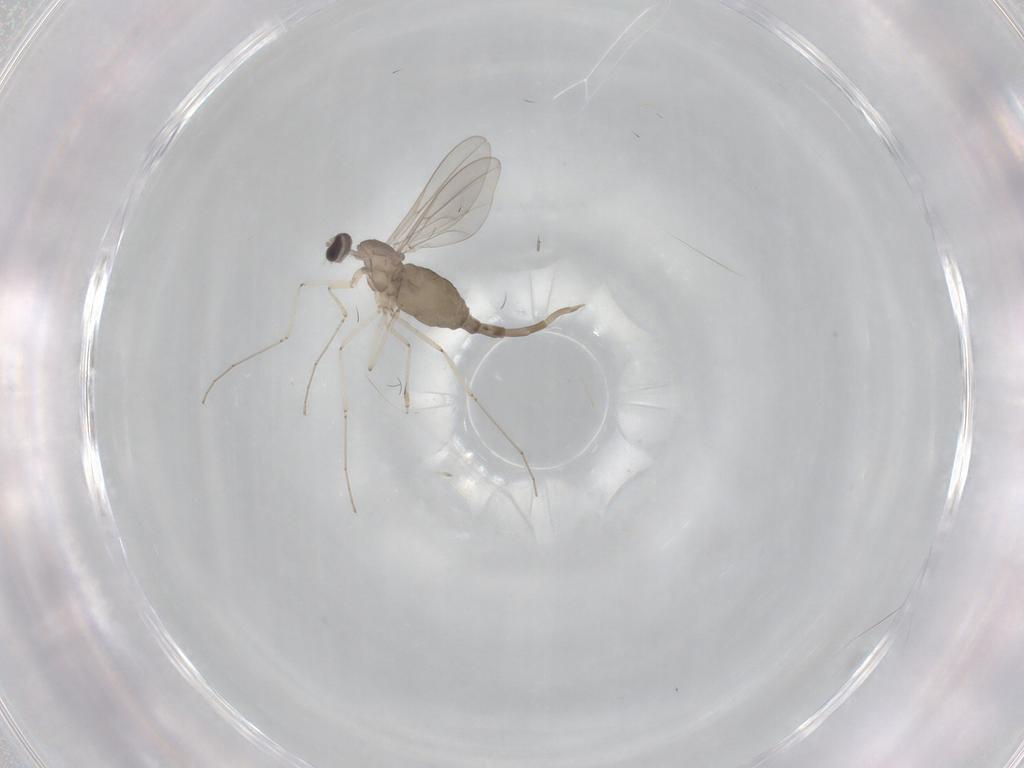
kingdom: Animalia
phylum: Arthropoda
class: Insecta
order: Diptera
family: Cecidomyiidae
